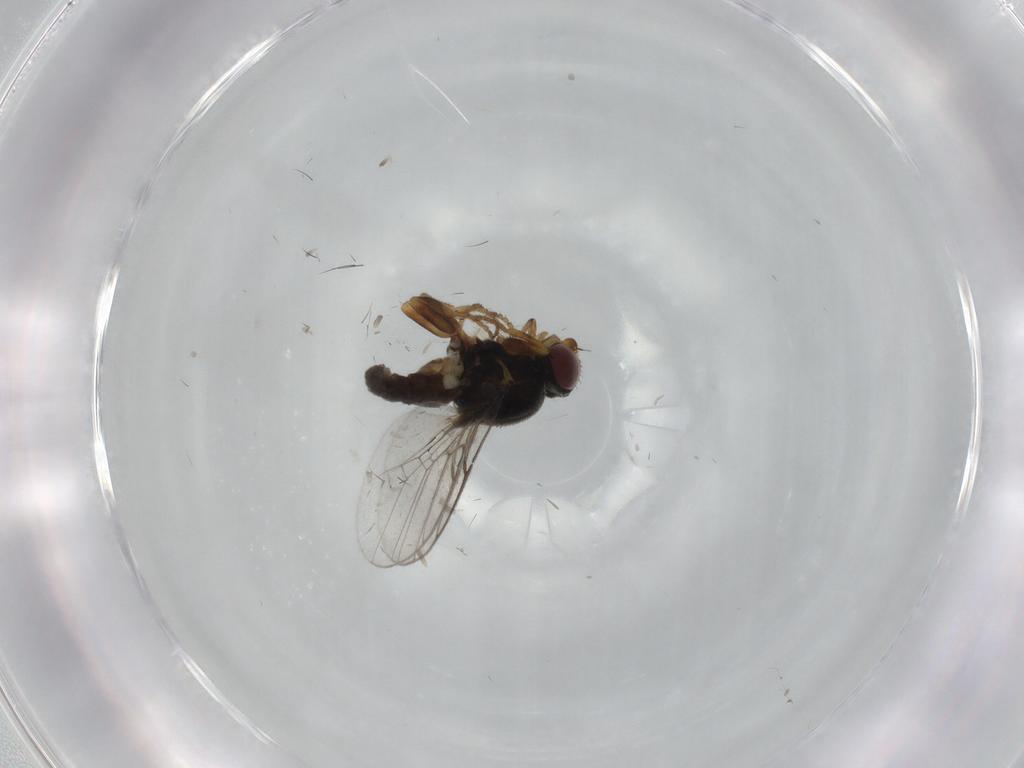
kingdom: Animalia
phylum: Arthropoda
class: Insecta
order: Diptera
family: Chloropidae
